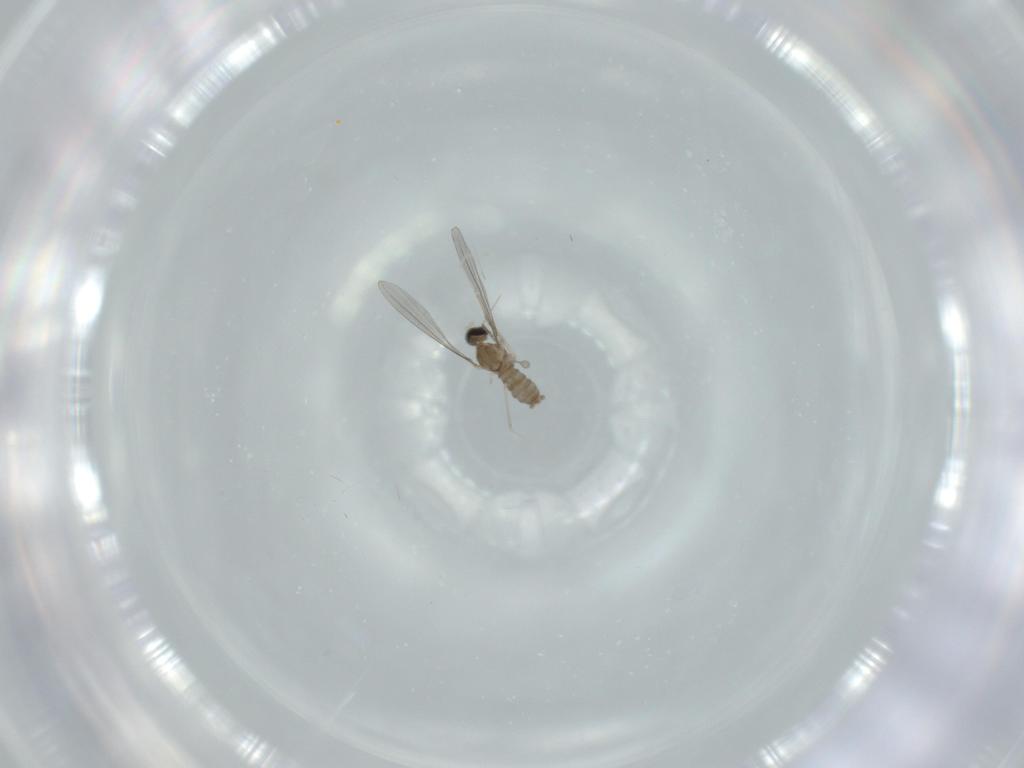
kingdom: Animalia
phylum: Arthropoda
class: Insecta
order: Diptera
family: Cecidomyiidae
